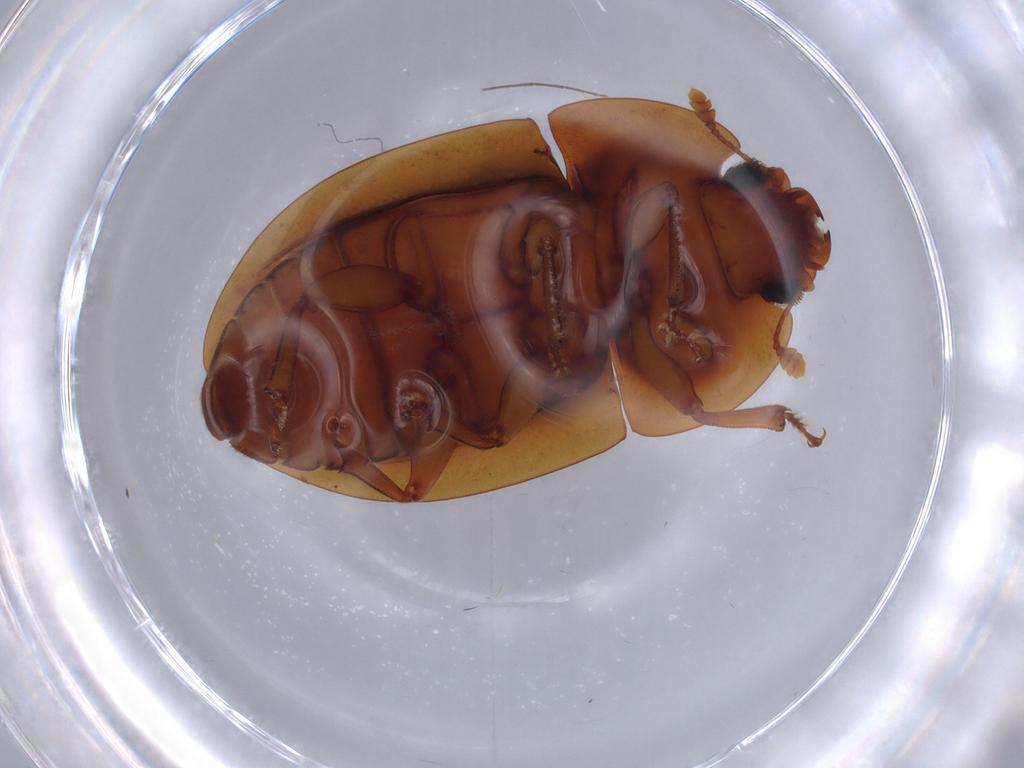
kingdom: Animalia
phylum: Arthropoda
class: Insecta
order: Coleoptera
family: Nitidulidae
